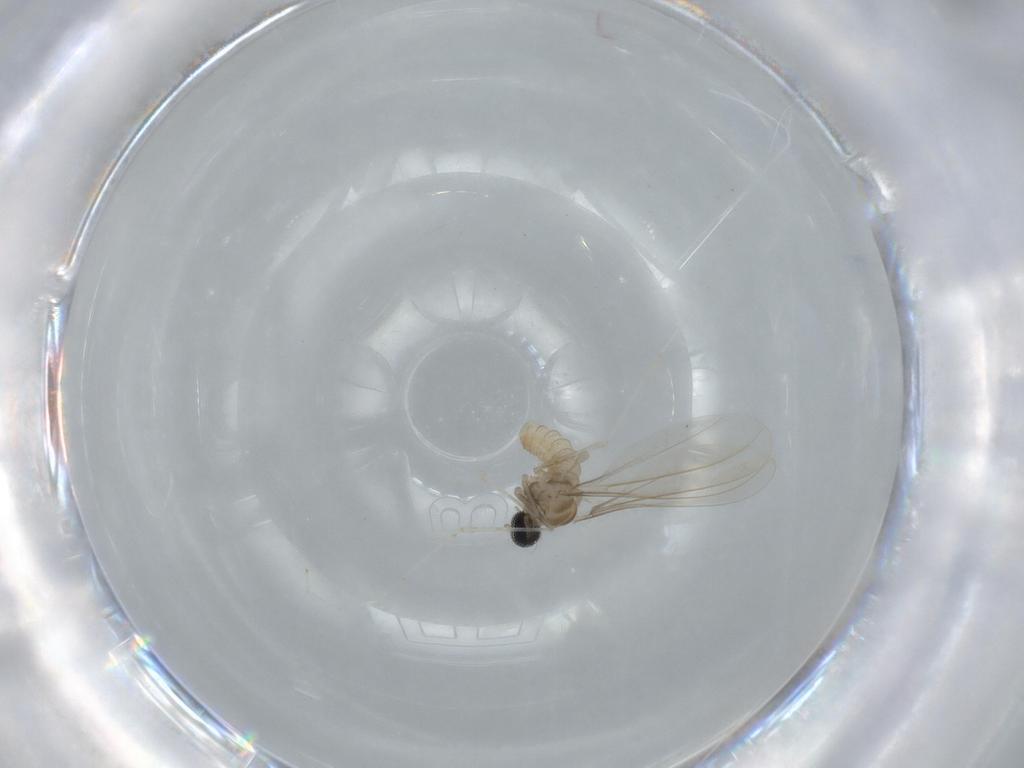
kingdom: Animalia
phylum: Arthropoda
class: Insecta
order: Diptera
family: Cecidomyiidae
